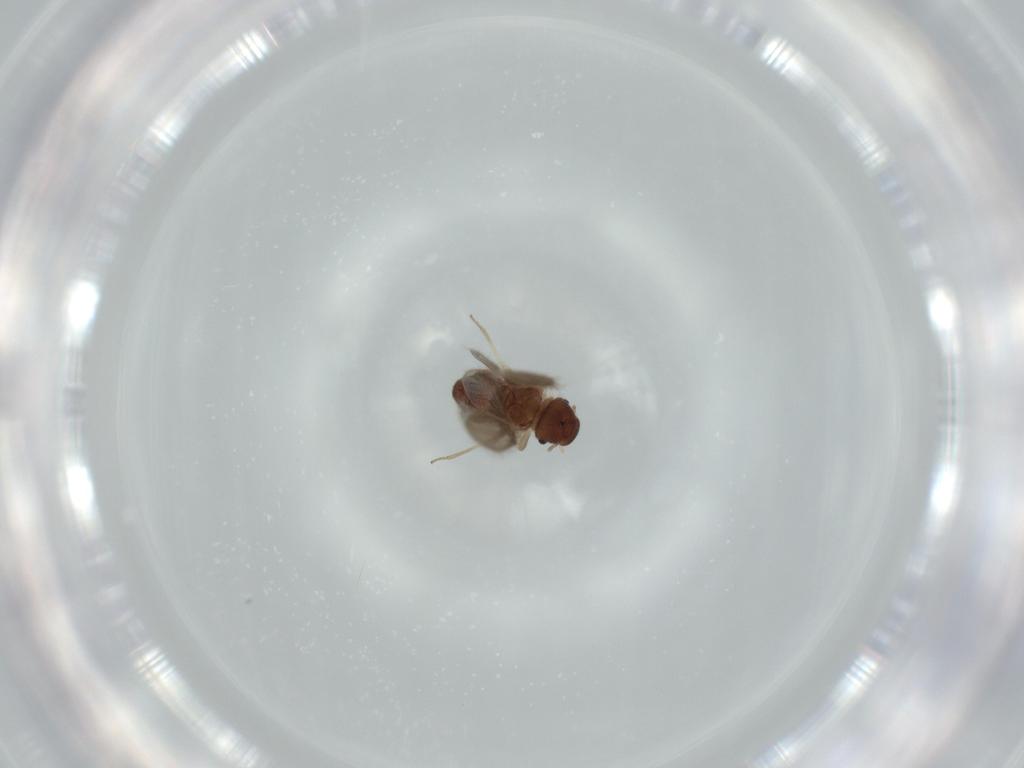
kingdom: Animalia
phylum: Arthropoda
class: Insecta
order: Psocodea
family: Archipsocidae
